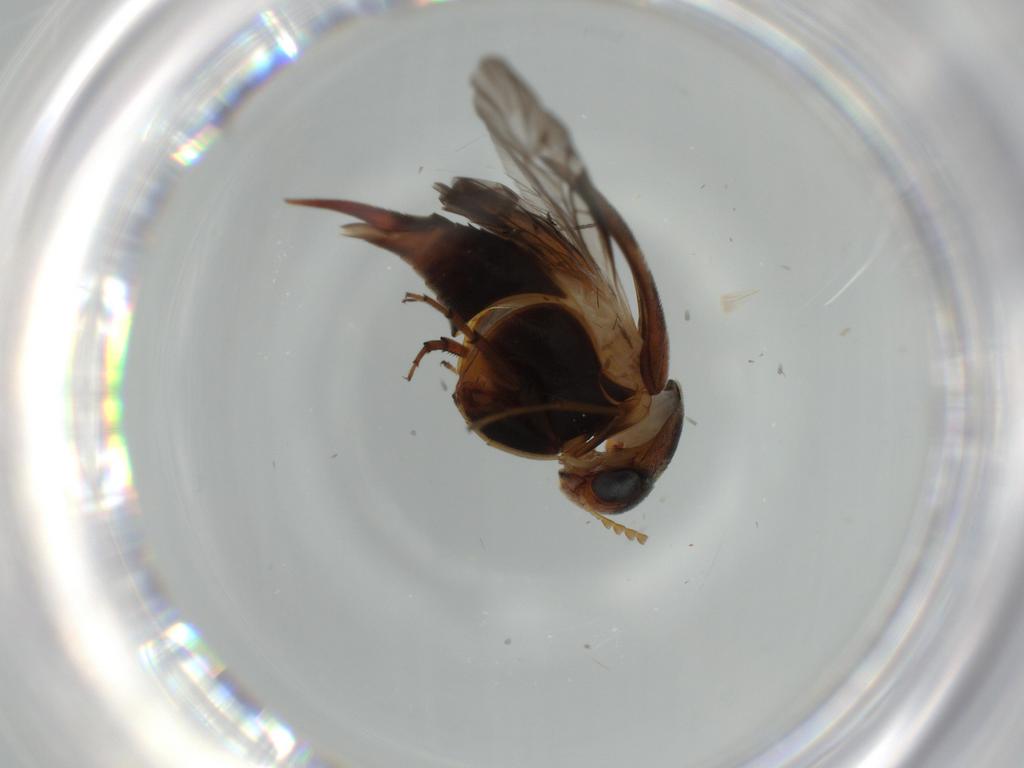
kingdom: Animalia
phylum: Arthropoda
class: Insecta
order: Coleoptera
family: Mordellidae
